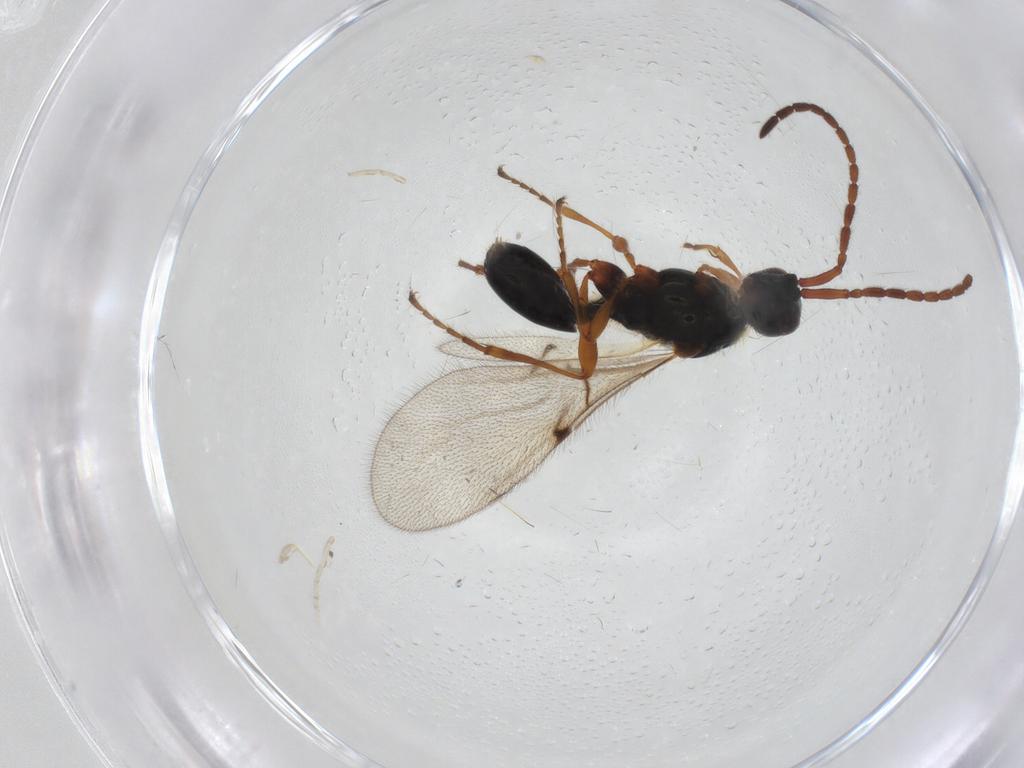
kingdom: Animalia
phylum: Arthropoda
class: Insecta
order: Hymenoptera
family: Diapriidae
